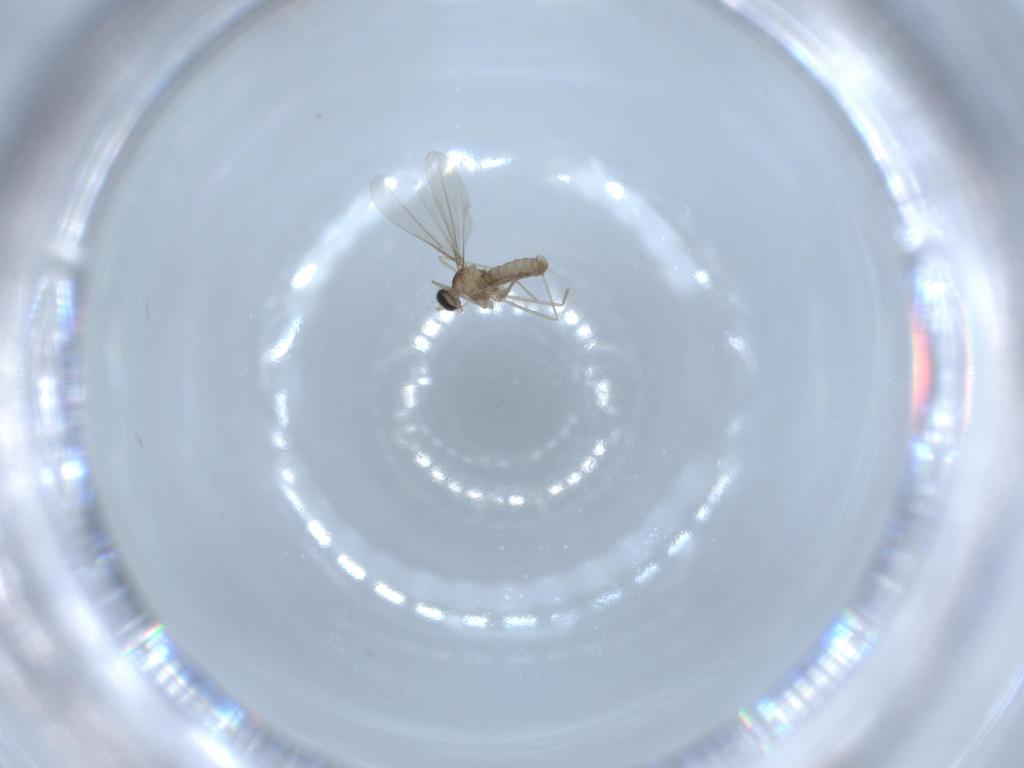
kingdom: Animalia
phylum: Arthropoda
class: Insecta
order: Diptera
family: Cecidomyiidae
